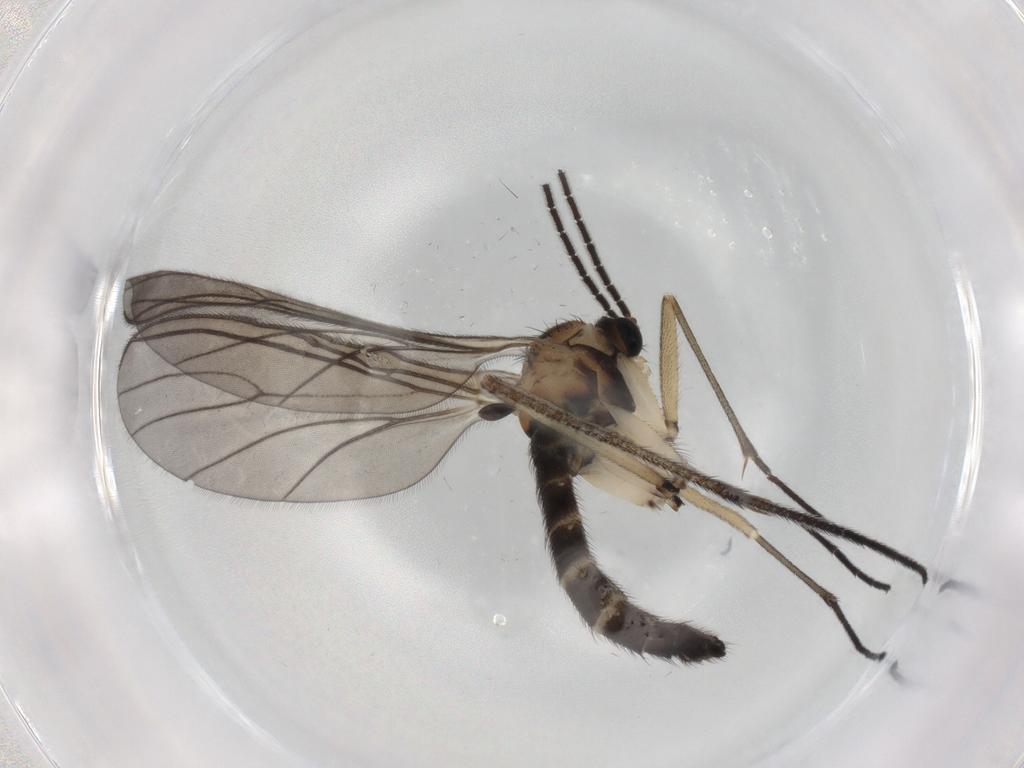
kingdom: Animalia
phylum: Arthropoda
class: Insecta
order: Diptera
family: Sciaridae
